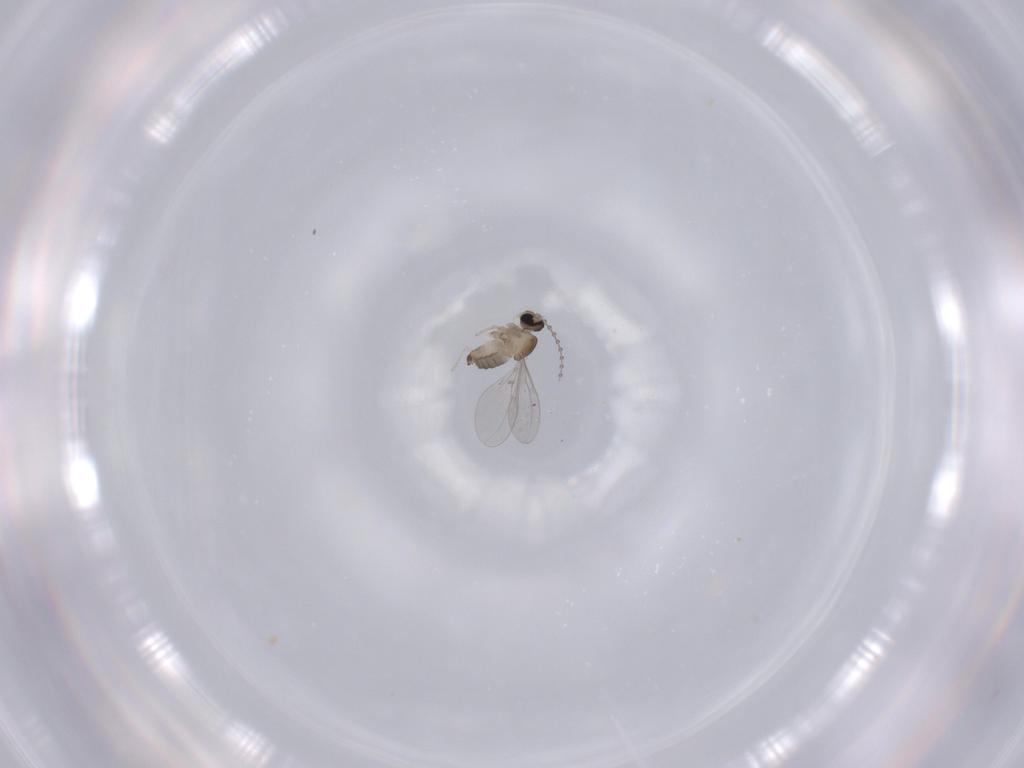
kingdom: Animalia
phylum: Arthropoda
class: Insecta
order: Diptera
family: Cecidomyiidae
